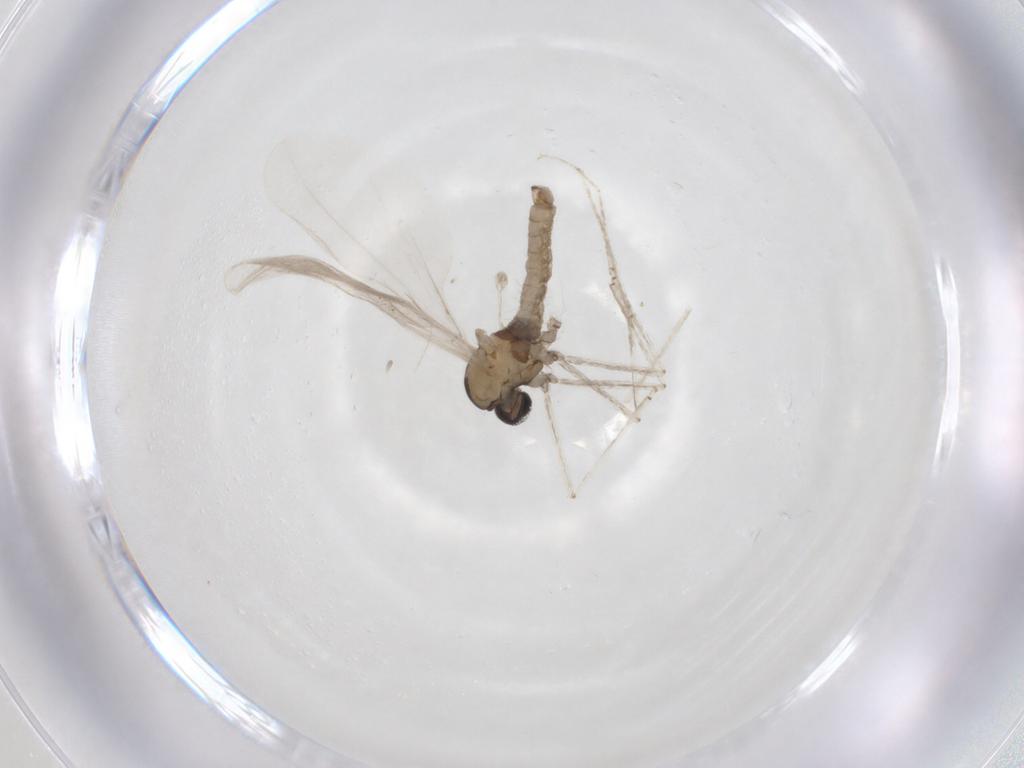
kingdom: Animalia
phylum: Arthropoda
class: Insecta
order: Diptera
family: Cecidomyiidae
